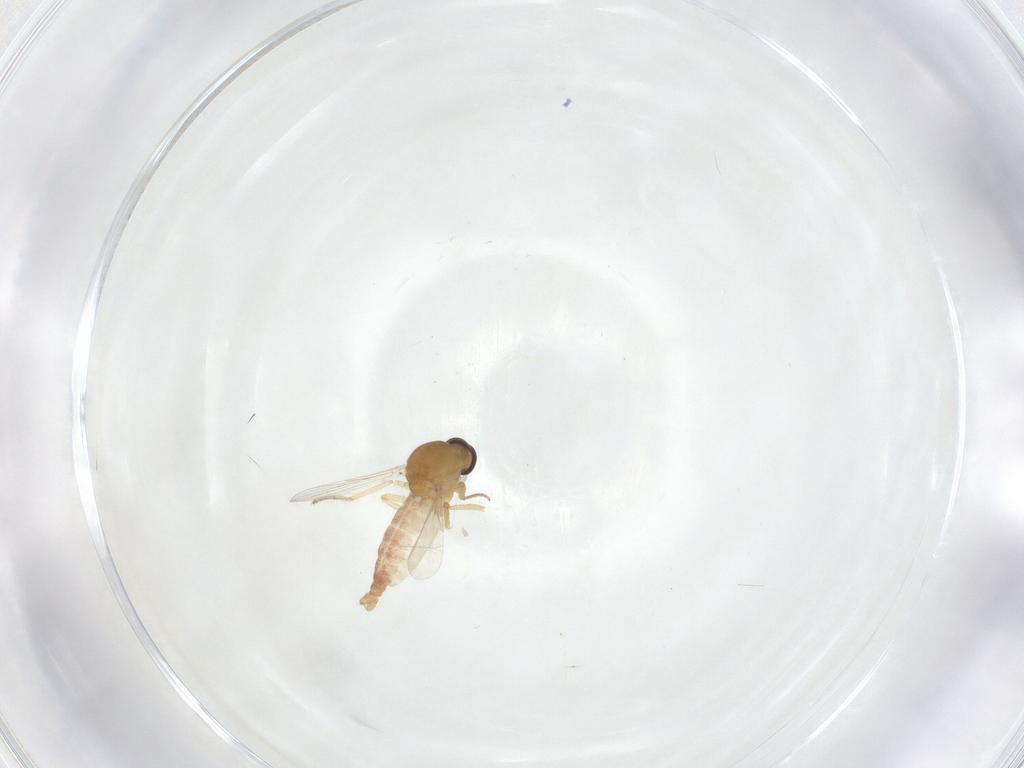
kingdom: Animalia
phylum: Arthropoda
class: Insecta
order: Diptera
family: Ceratopogonidae
